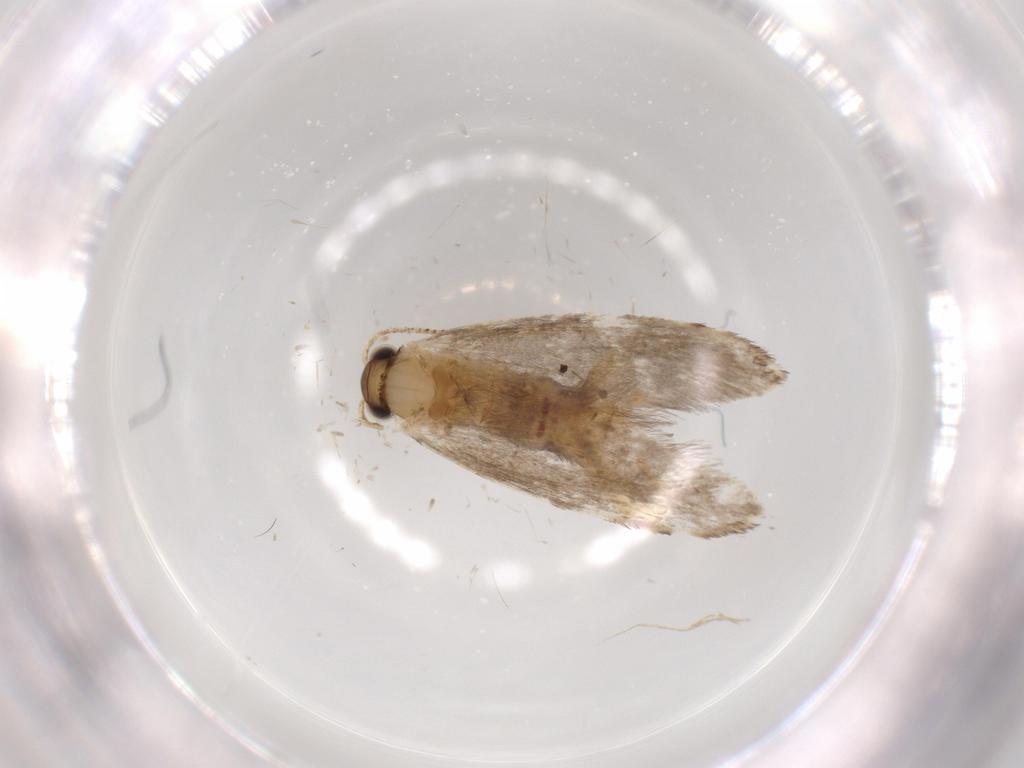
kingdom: Animalia
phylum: Arthropoda
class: Insecta
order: Lepidoptera
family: Tineidae
